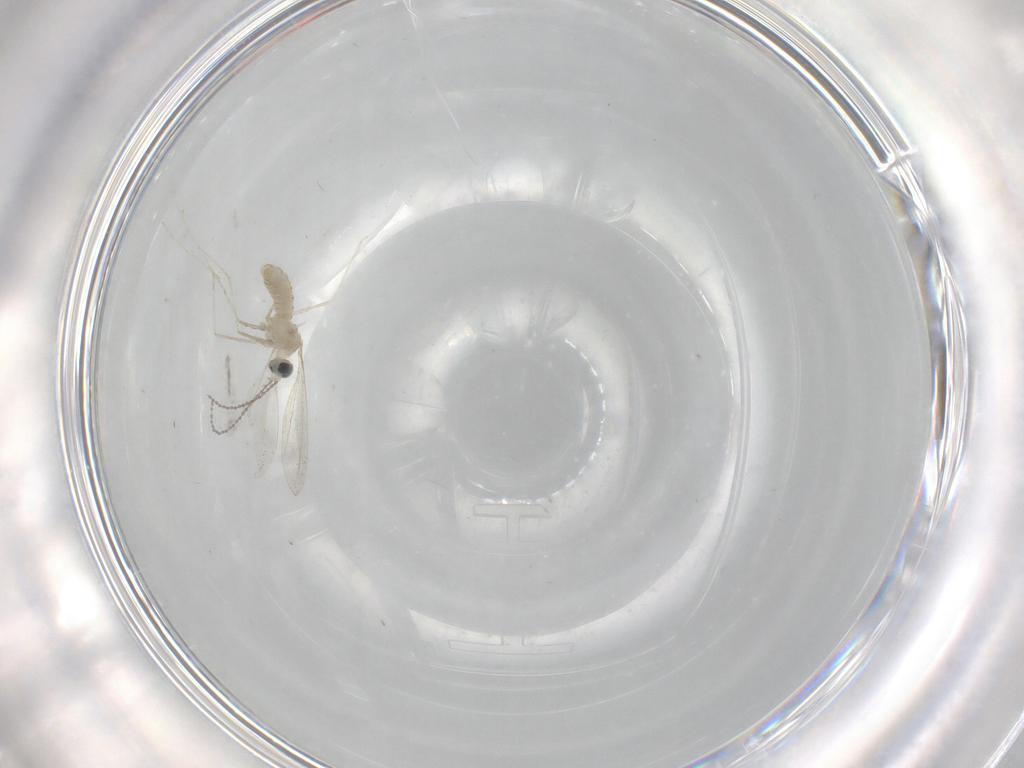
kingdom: Animalia
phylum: Arthropoda
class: Insecta
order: Diptera
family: Cecidomyiidae
